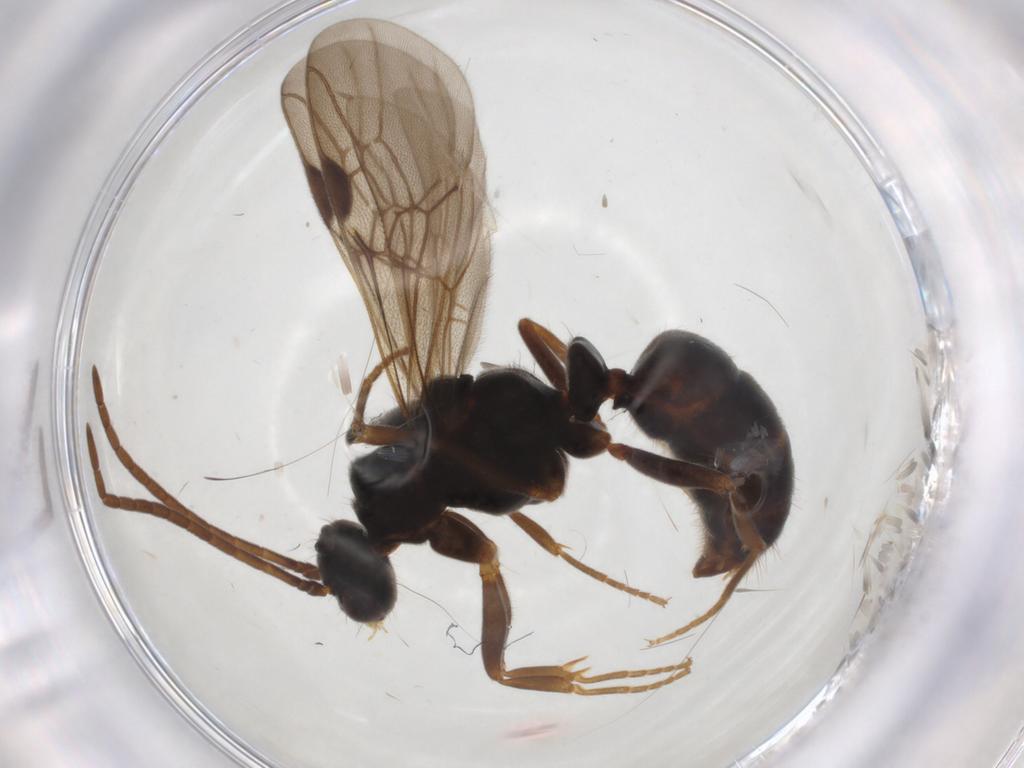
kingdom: Animalia
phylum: Arthropoda
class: Insecta
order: Hymenoptera
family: Formicidae
